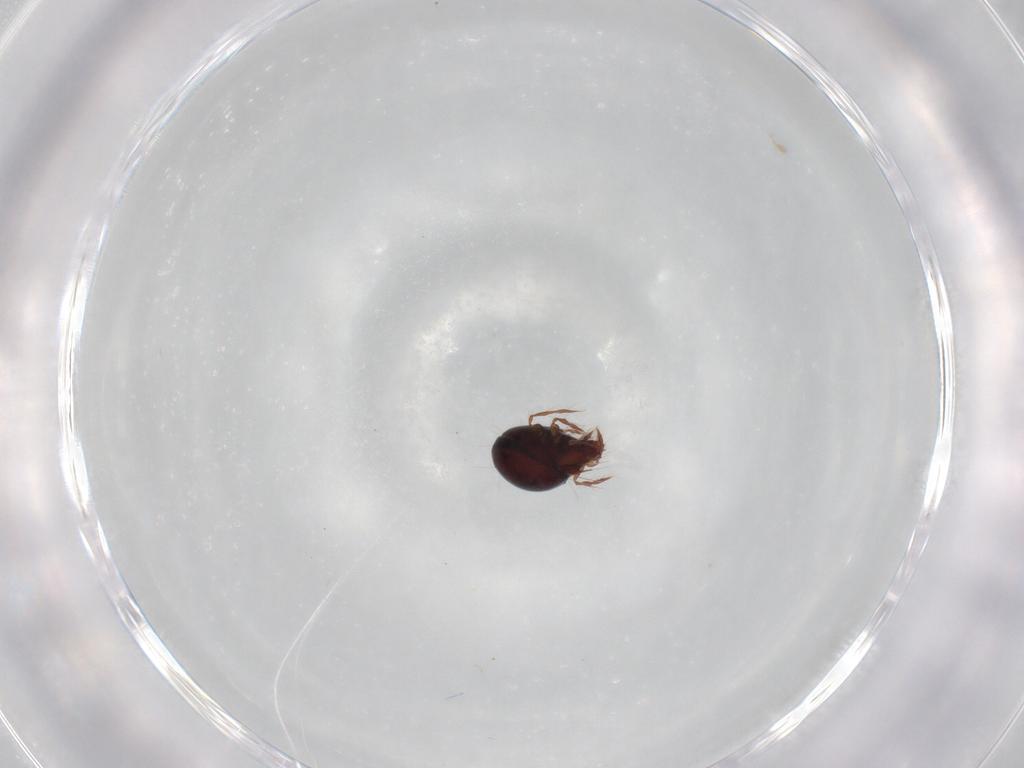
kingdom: Animalia
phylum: Arthropoda
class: Arachnida
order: Sarcoptiformes
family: Ceratoppiidae
